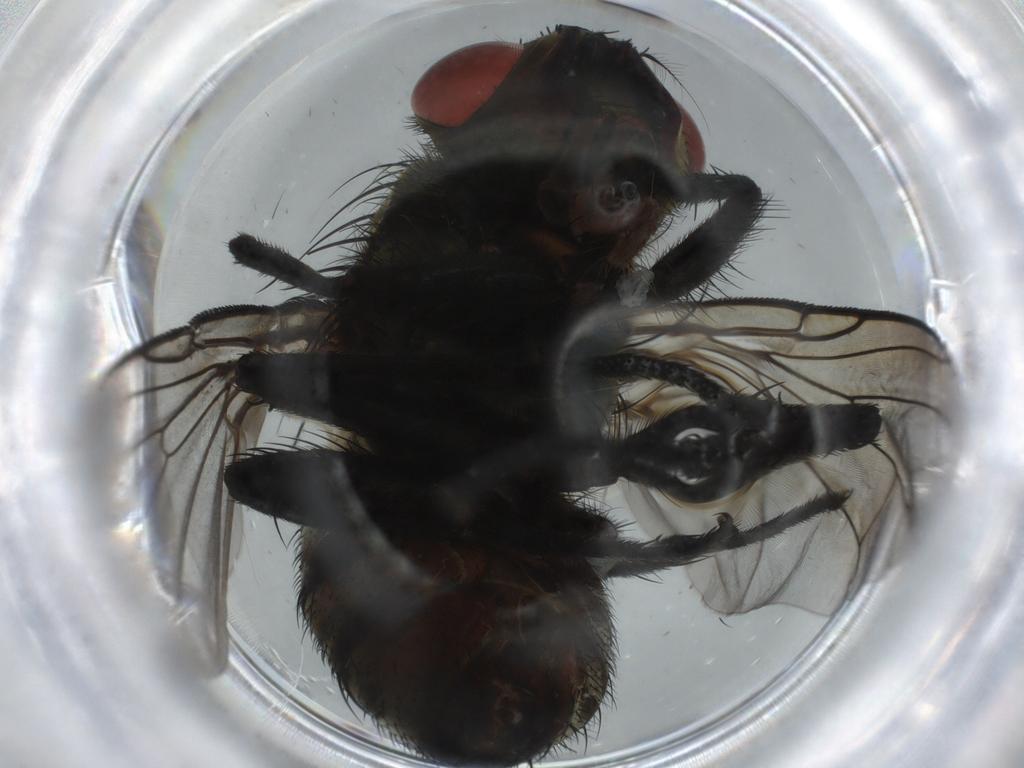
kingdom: Animalia
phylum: Arthropoda
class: Insecta
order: Diptera
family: Sarcophagidae
